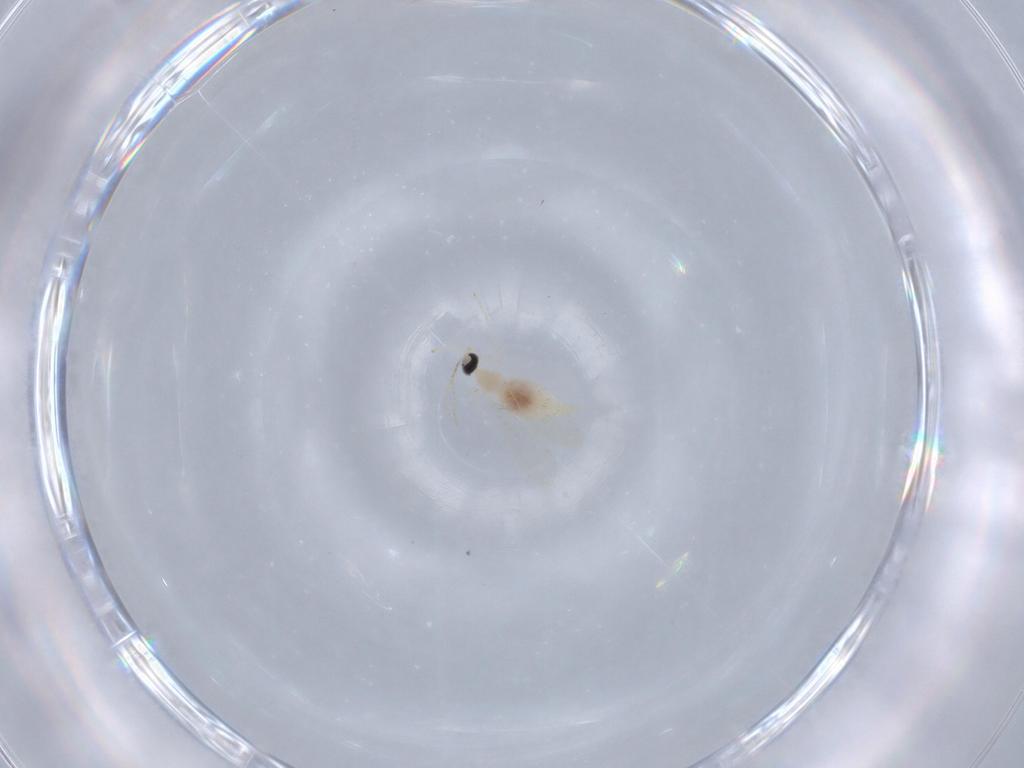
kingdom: Animalia
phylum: Arthropoda
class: Insecta
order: Diptera
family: Cecidomyiidae
